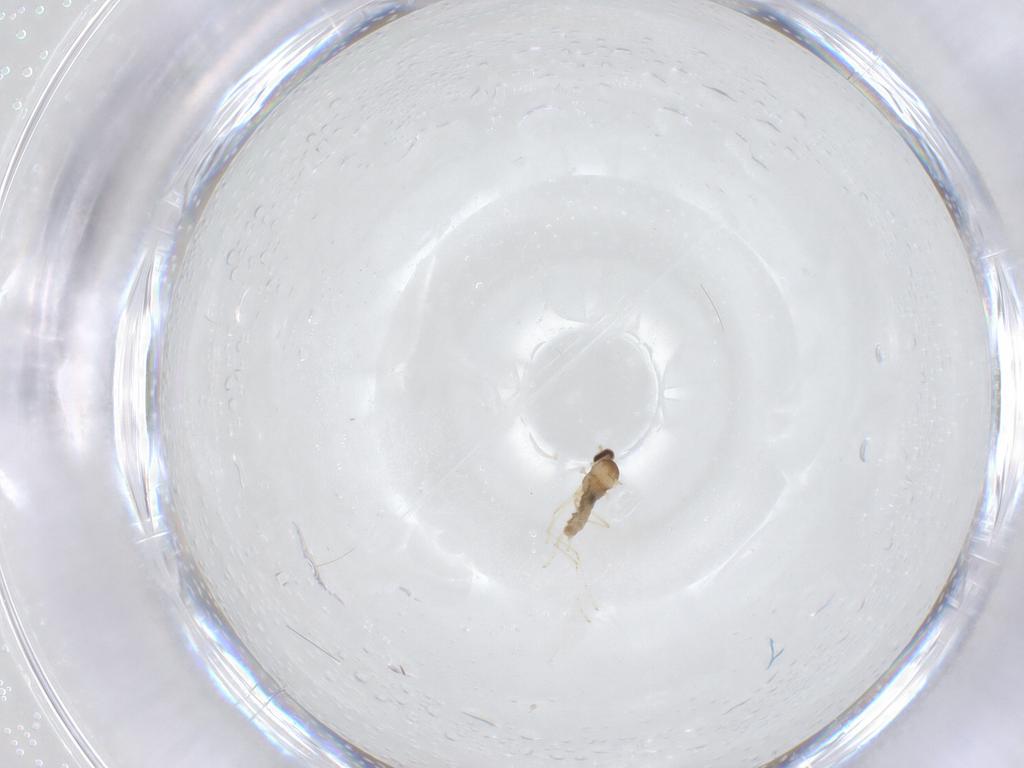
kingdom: Animalia
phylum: Arthropoda
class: Insecta
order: Diptera
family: Cecidomyiidae
